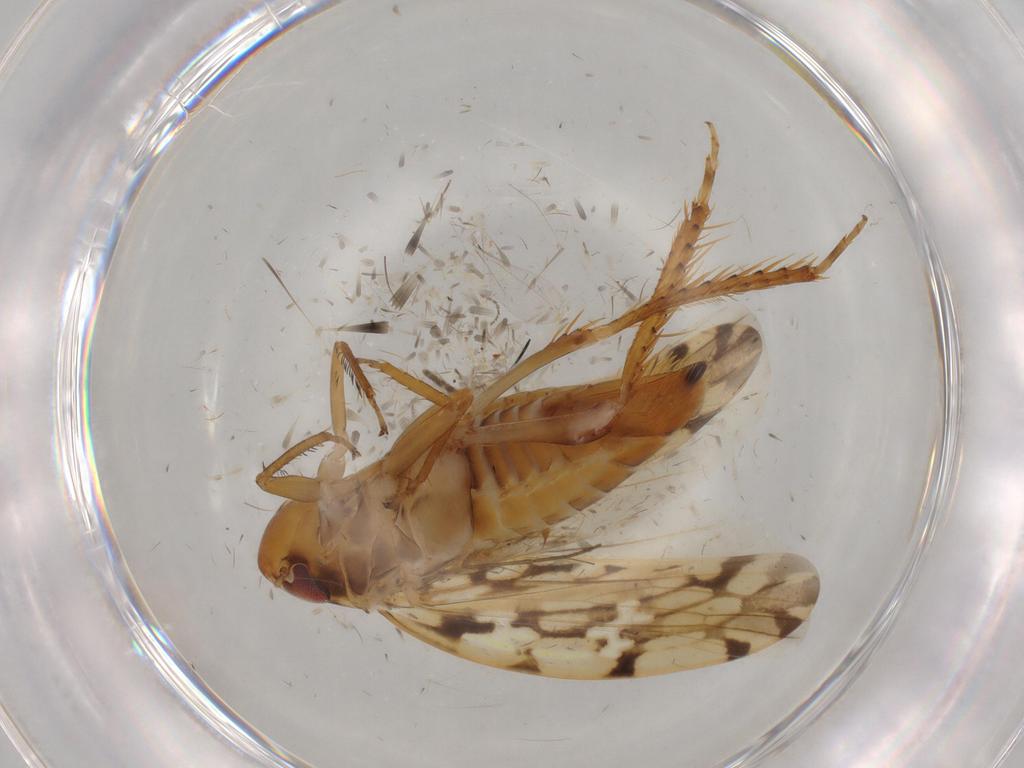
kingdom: Animalia
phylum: Arthropoda
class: Insecta
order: Hemiptera
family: Cicadellidae
